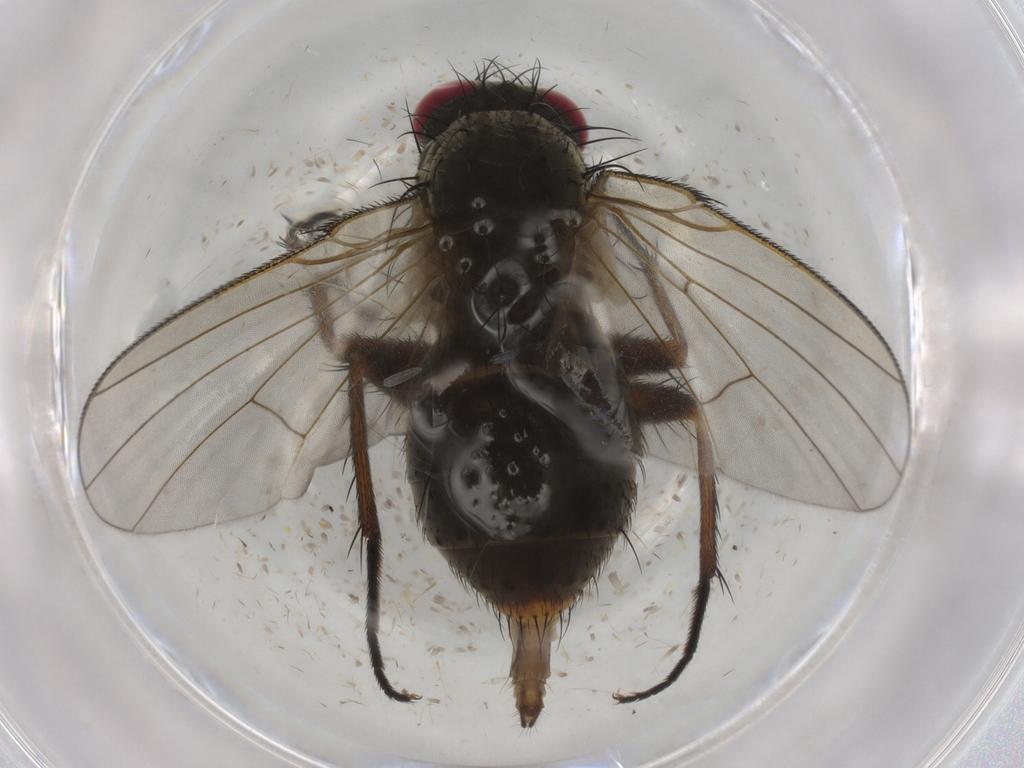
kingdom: Animalia
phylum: Arthropoda
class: Insecta
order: Diptera
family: Muscidae
